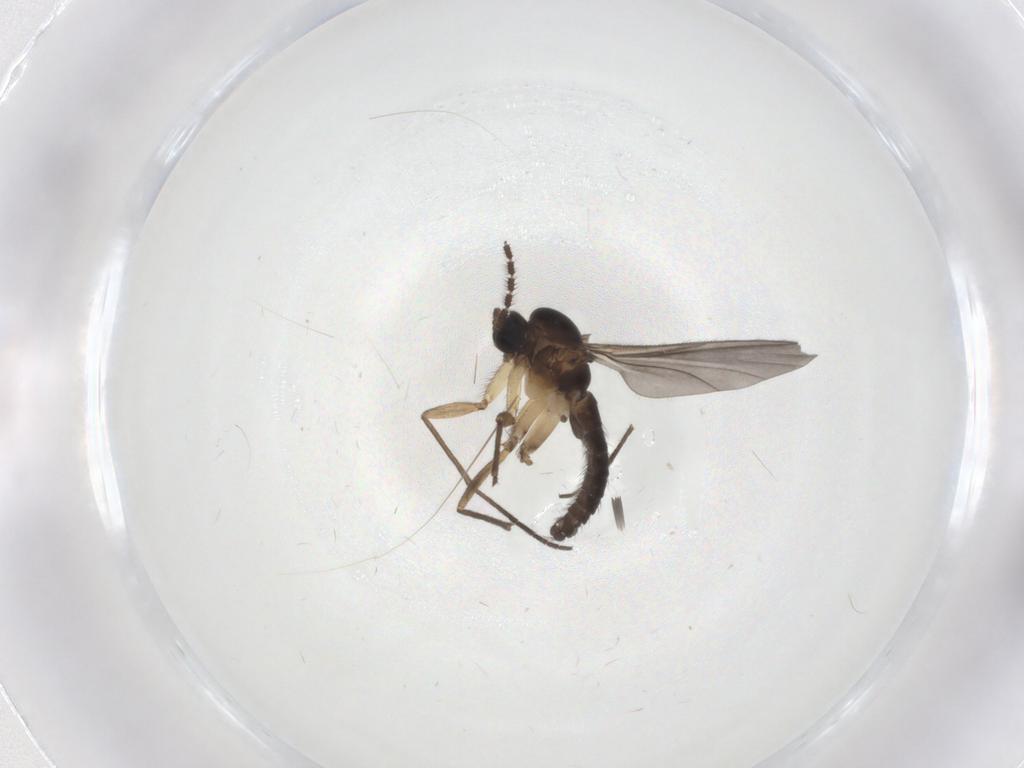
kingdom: Animalia
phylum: Arthropoda
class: Insecta
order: Diptera
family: Sciaridae
